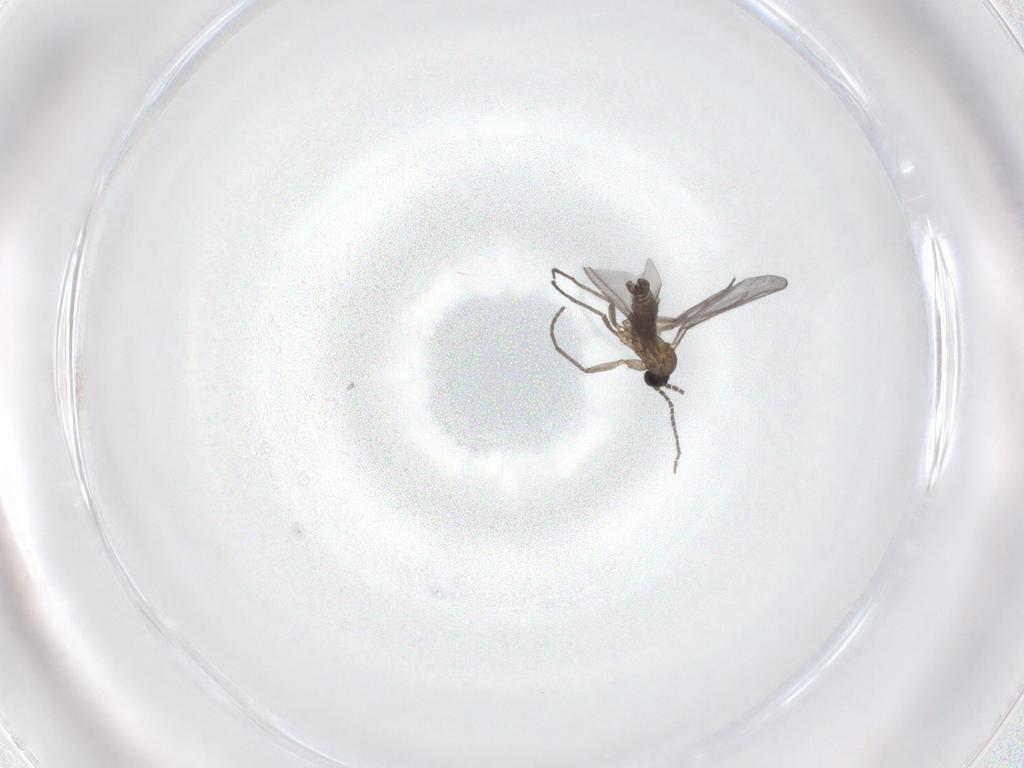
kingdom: Animalia
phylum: Arthropoda
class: Insecta
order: Diptera
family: Sciaridae
